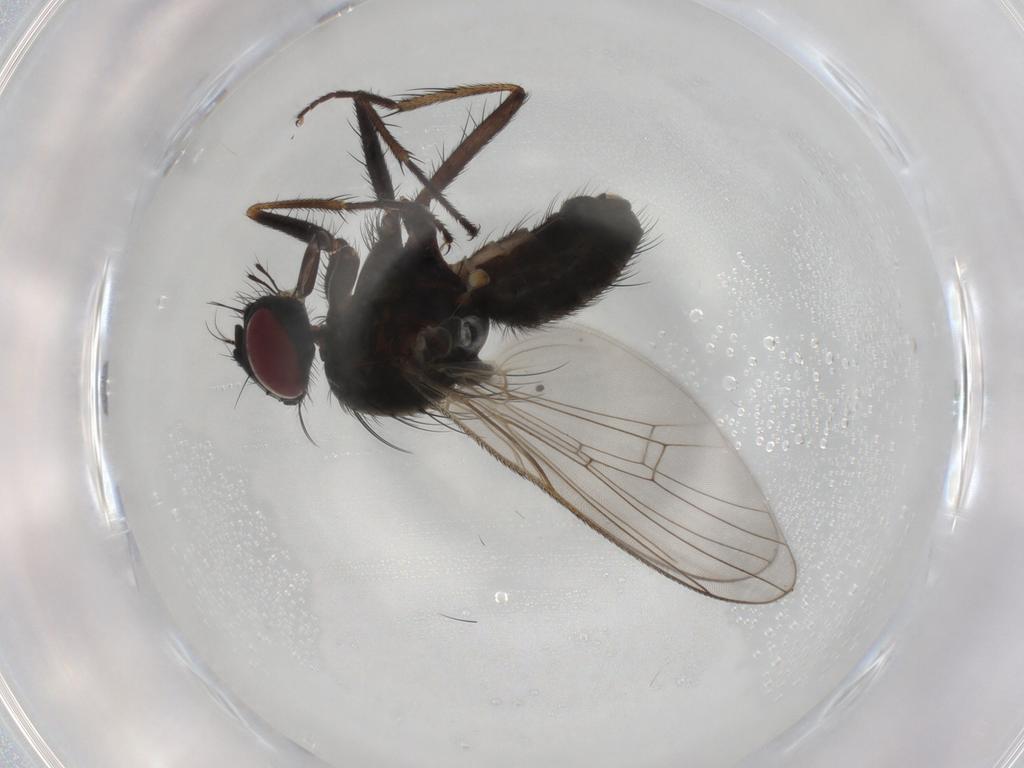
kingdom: Animalia
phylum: Arthropoda
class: Insecta
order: Diptera
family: Muscidae
